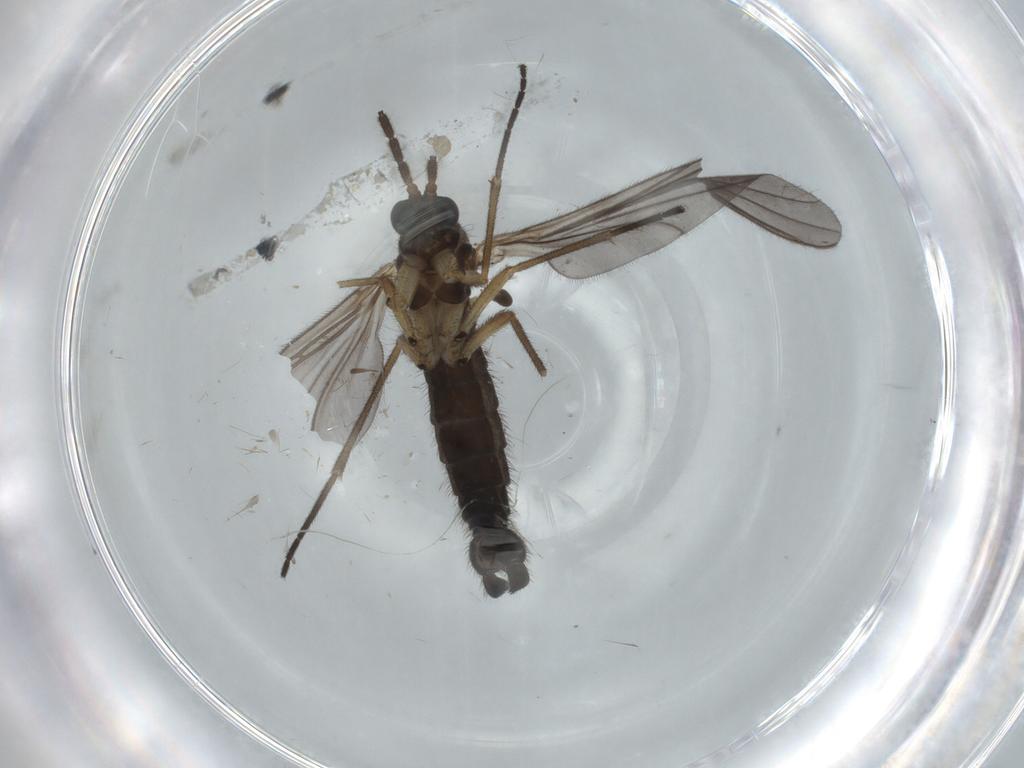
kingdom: Animalia
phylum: Arthropoda
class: Insecta
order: Diptera
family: Sciaridae
